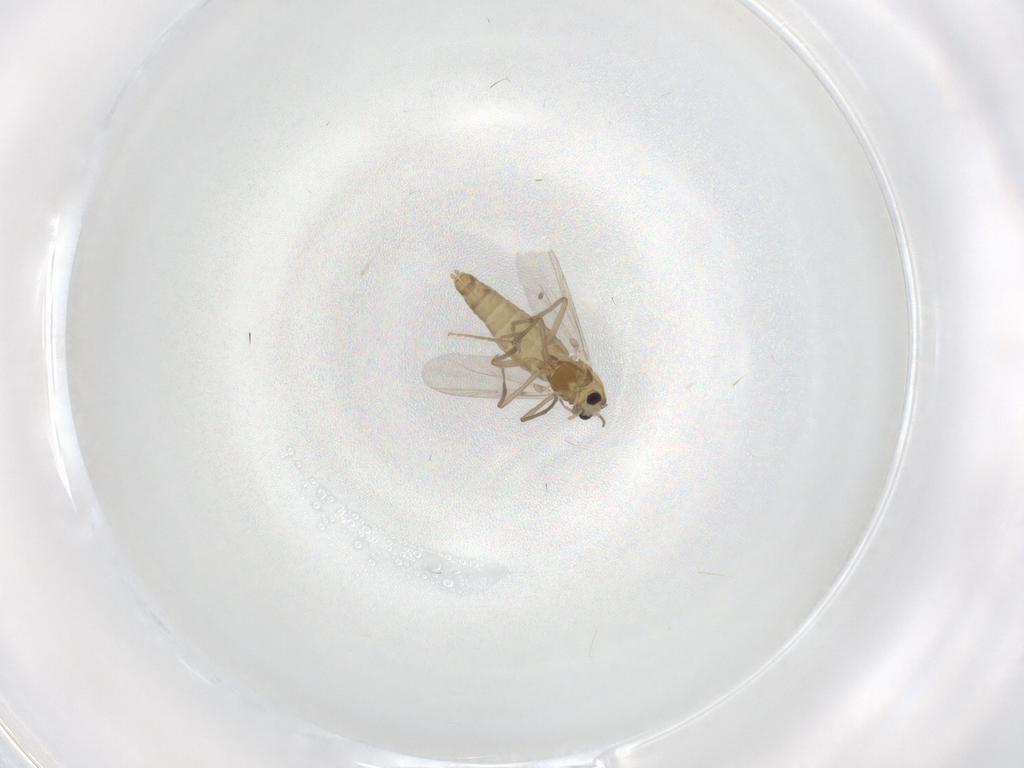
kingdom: Animalia
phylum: Arthropoda
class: Insecta
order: Diptera
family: Chironomidae
